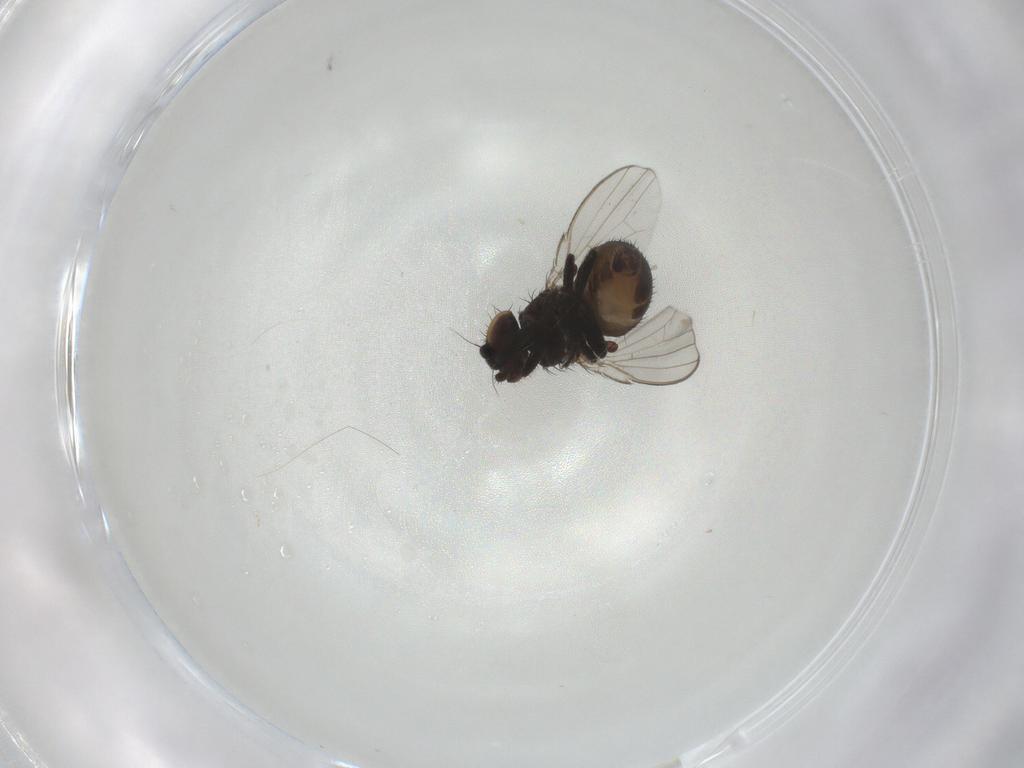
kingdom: Animalia
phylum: Arthropoda
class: Insecta
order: Diptera
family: Milichiidae
